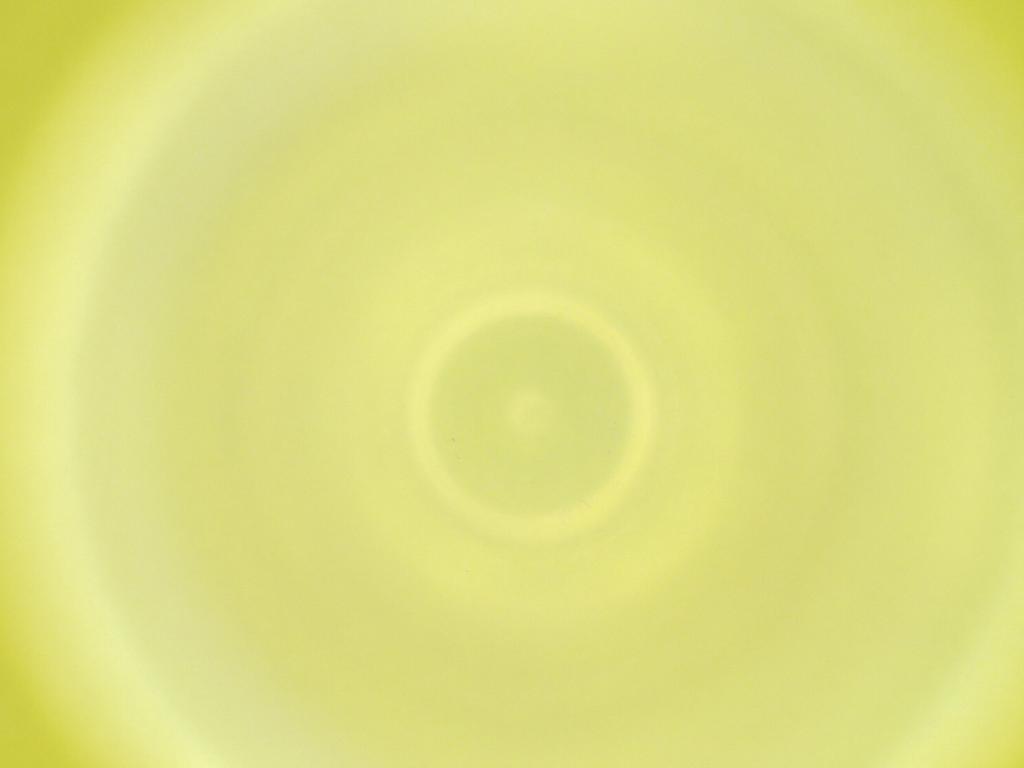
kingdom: Animalia
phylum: Arthropoda
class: Insecta
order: Diptera
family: Cecidomyiidae
